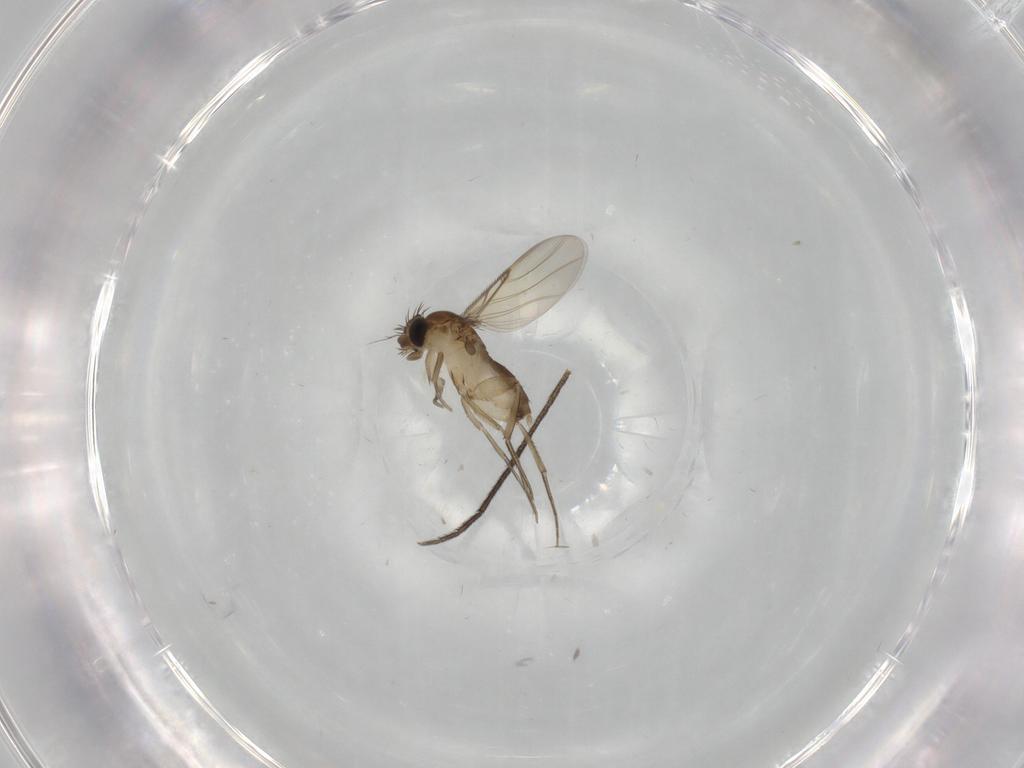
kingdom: Animalia
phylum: Arthropoda
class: Insecta
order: Diptera
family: Phoridae
